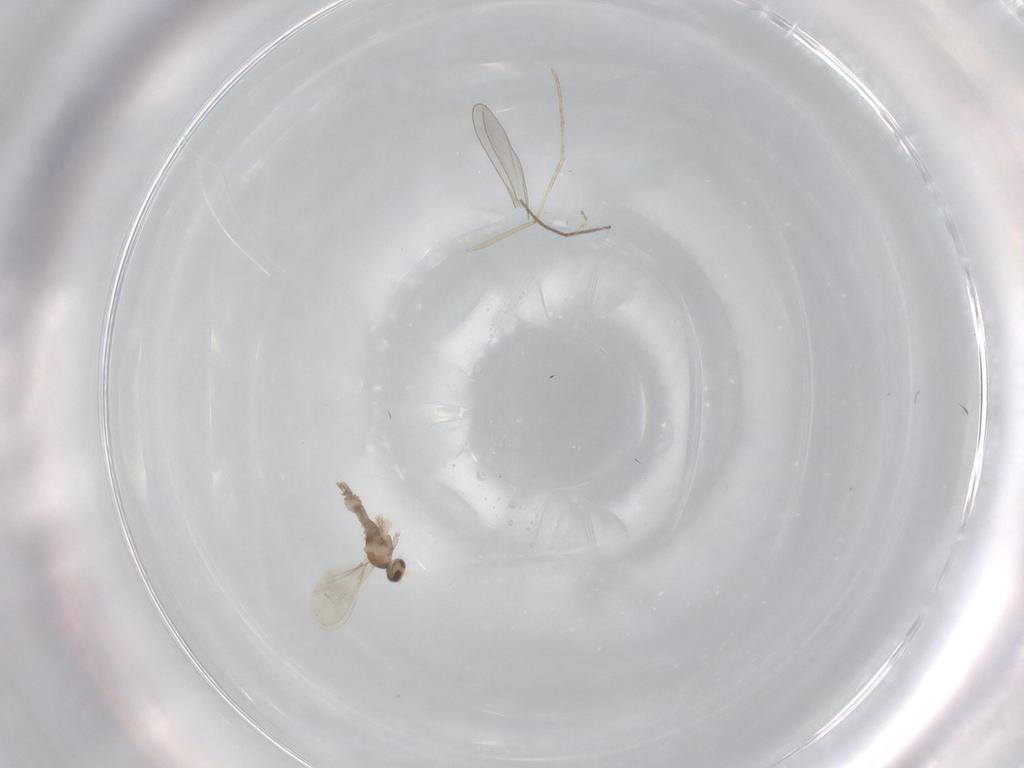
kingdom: Animalia
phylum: Arthropoda
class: Insecta
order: Diptera
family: Cecidomyiidae
